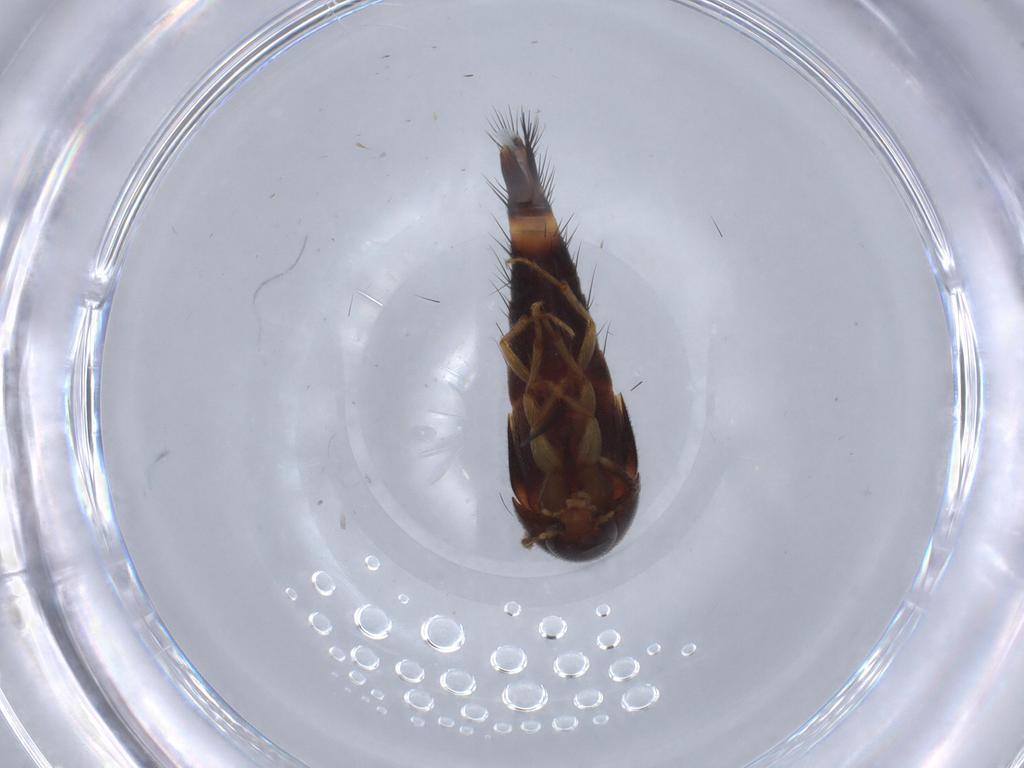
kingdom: Animalia
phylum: Arthropoda
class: Insecta
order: Coleoptera
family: Staphylinidae
